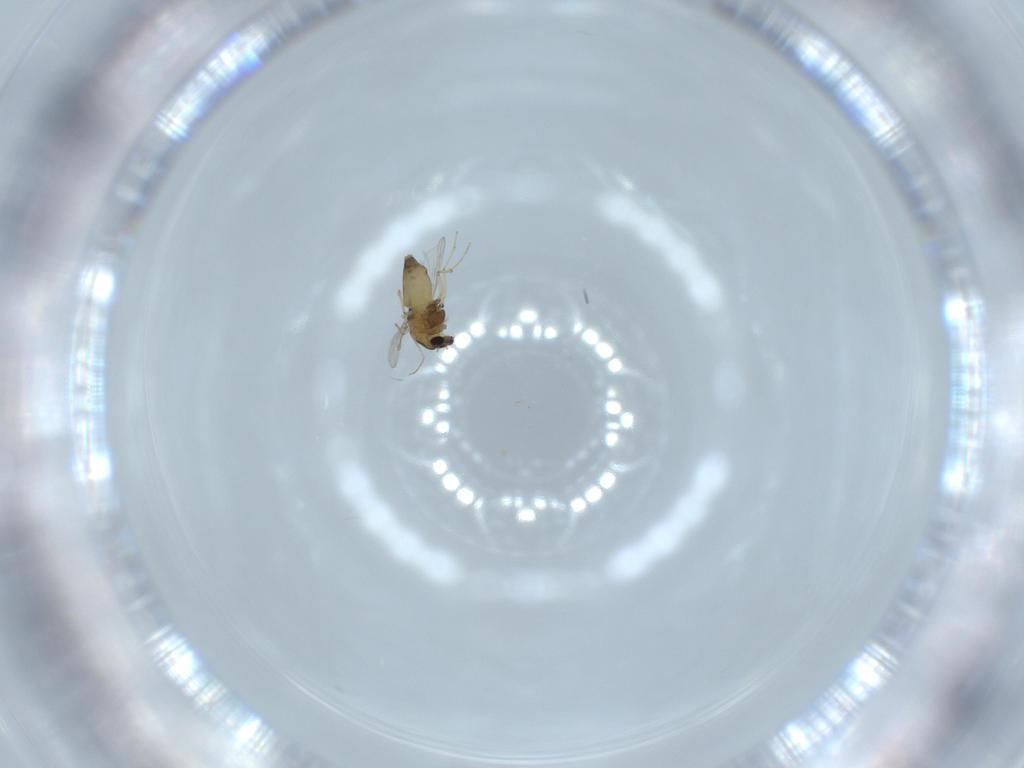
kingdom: Animalia
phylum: Arthropoda
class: Insecta
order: Diptera
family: Chironomidae
